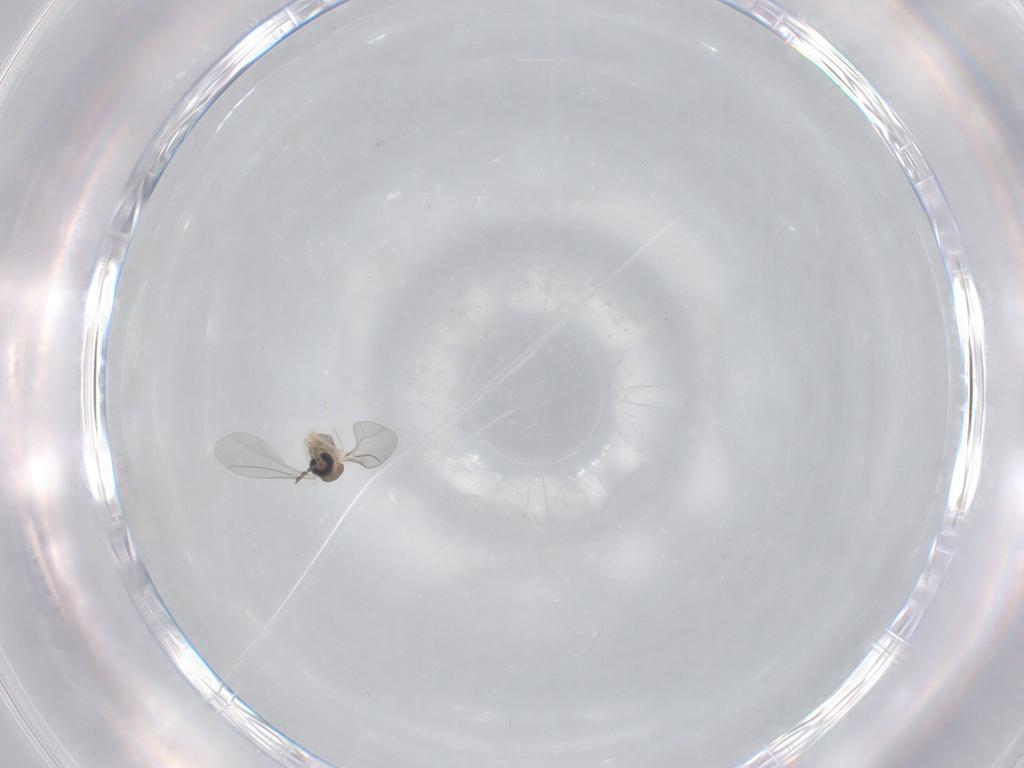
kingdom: Animalia
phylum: Arthropoda
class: Insecta
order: Diptera
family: Cecidomyiidae
